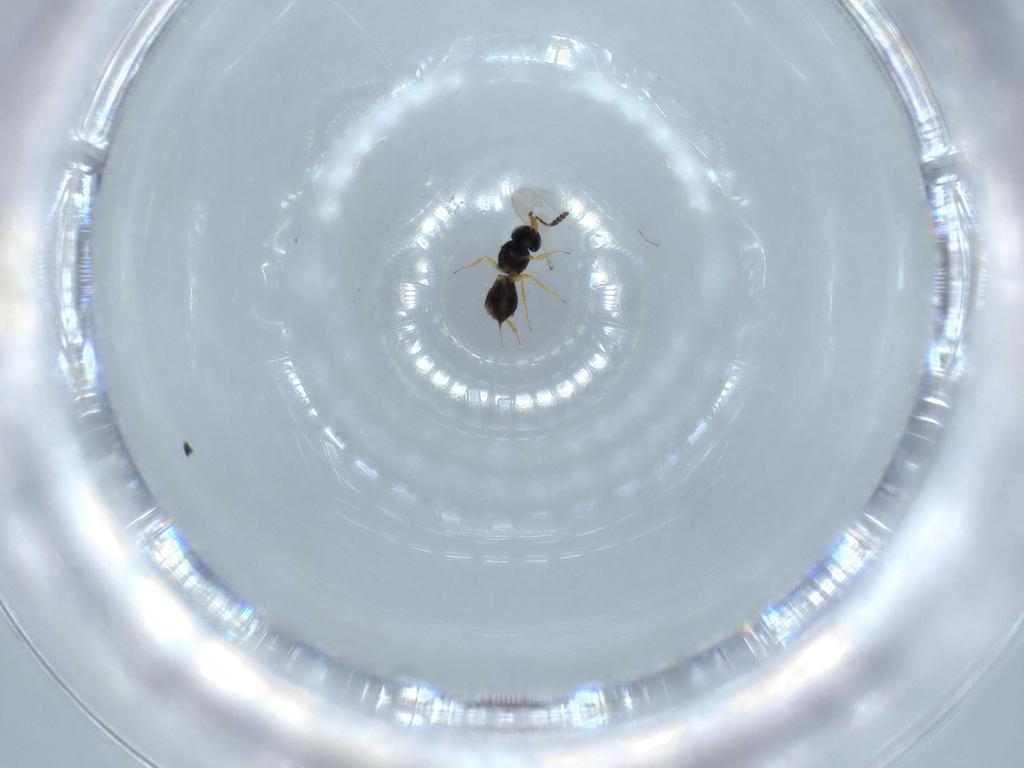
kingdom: Animalia
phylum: Arthropoda
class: Insecta
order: Hymenoptera
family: Scelionidae
